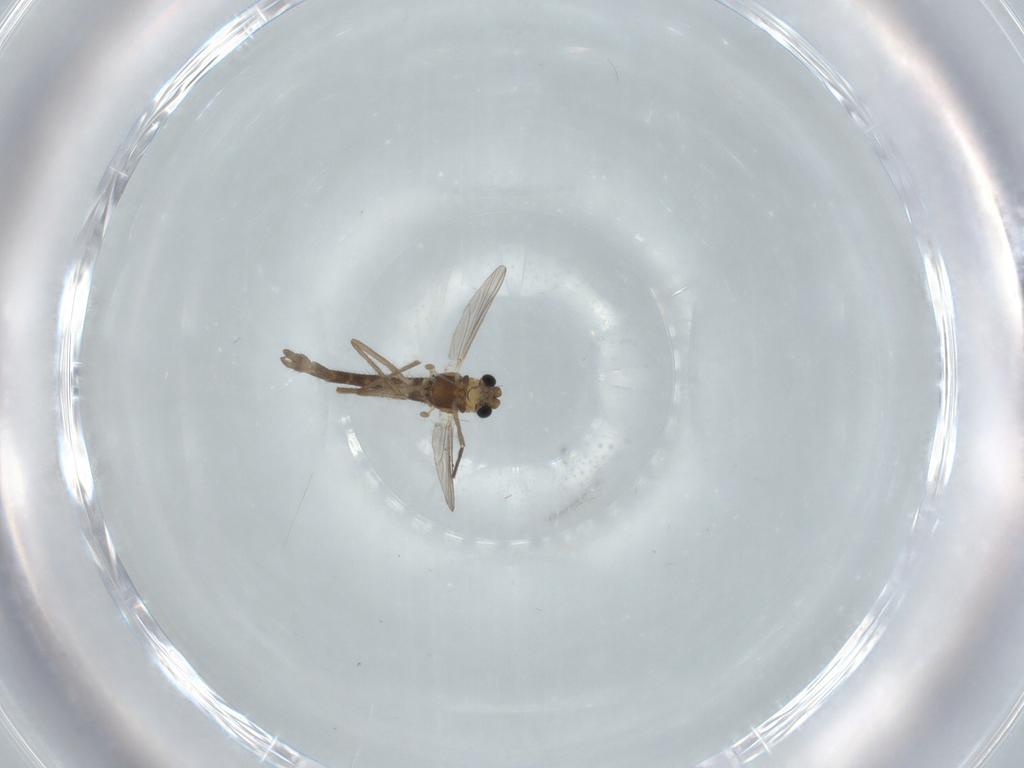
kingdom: Animalia
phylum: Arthropoda
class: Insecta
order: Diptera
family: Chironomidae
